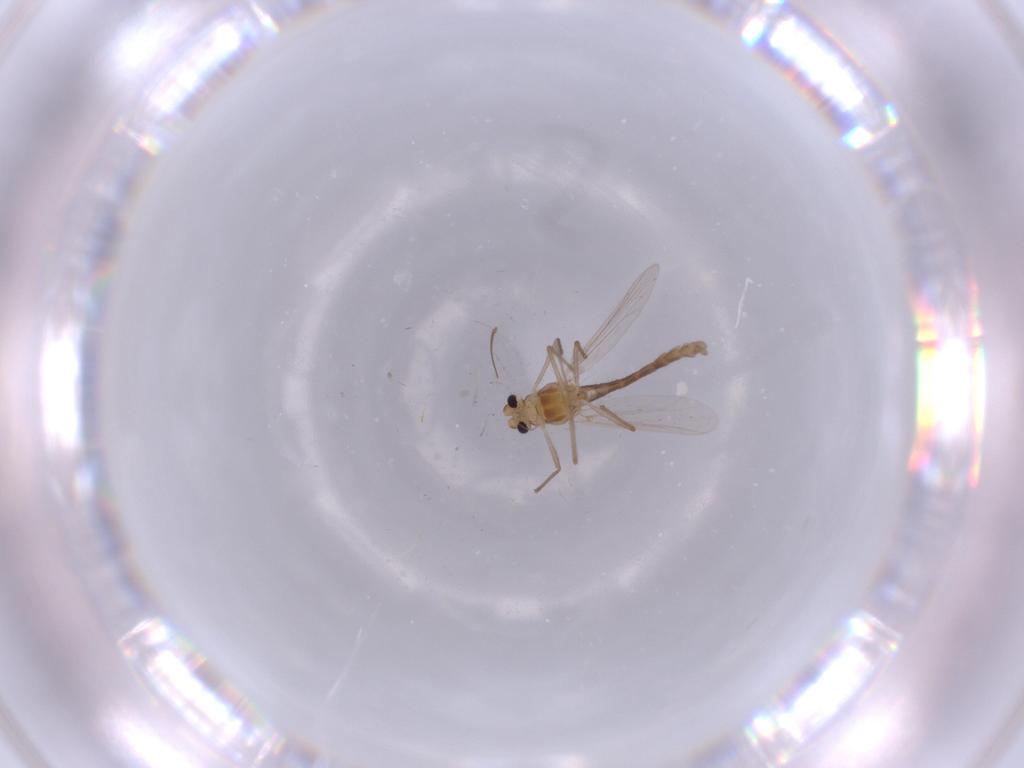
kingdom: Animalia
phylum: Arthropoda
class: Insecta
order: Diptera
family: Chironomidae
